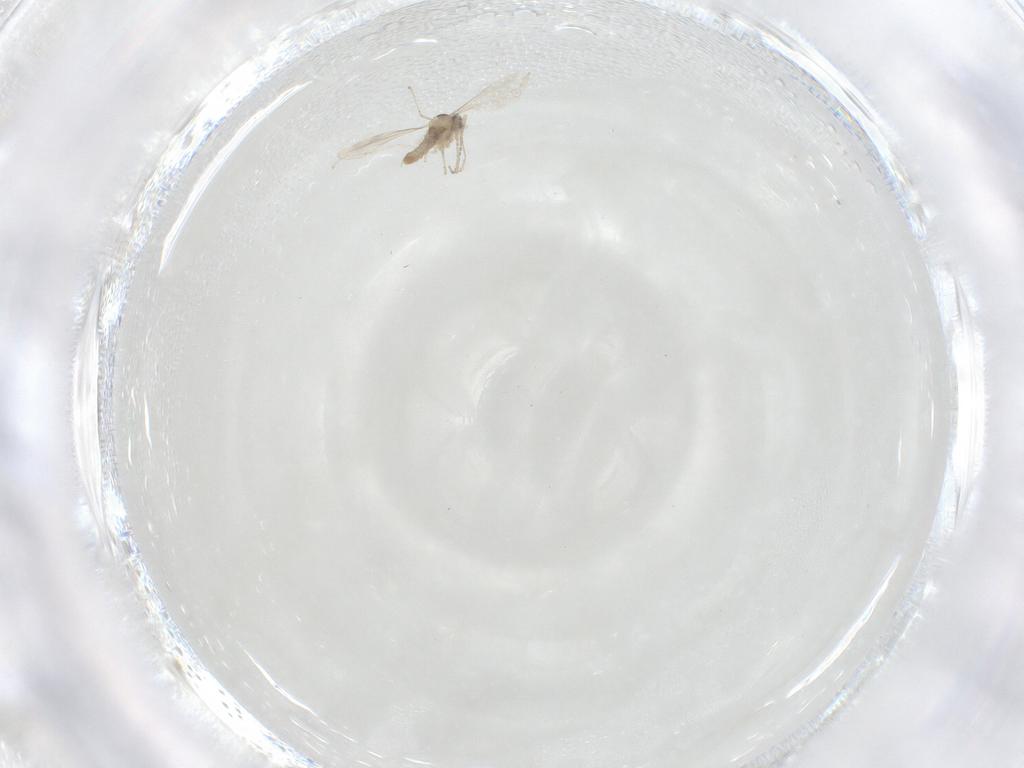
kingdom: Animalia
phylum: Arthropoda
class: Insecta
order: Diptera
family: Cecidomyiidae
